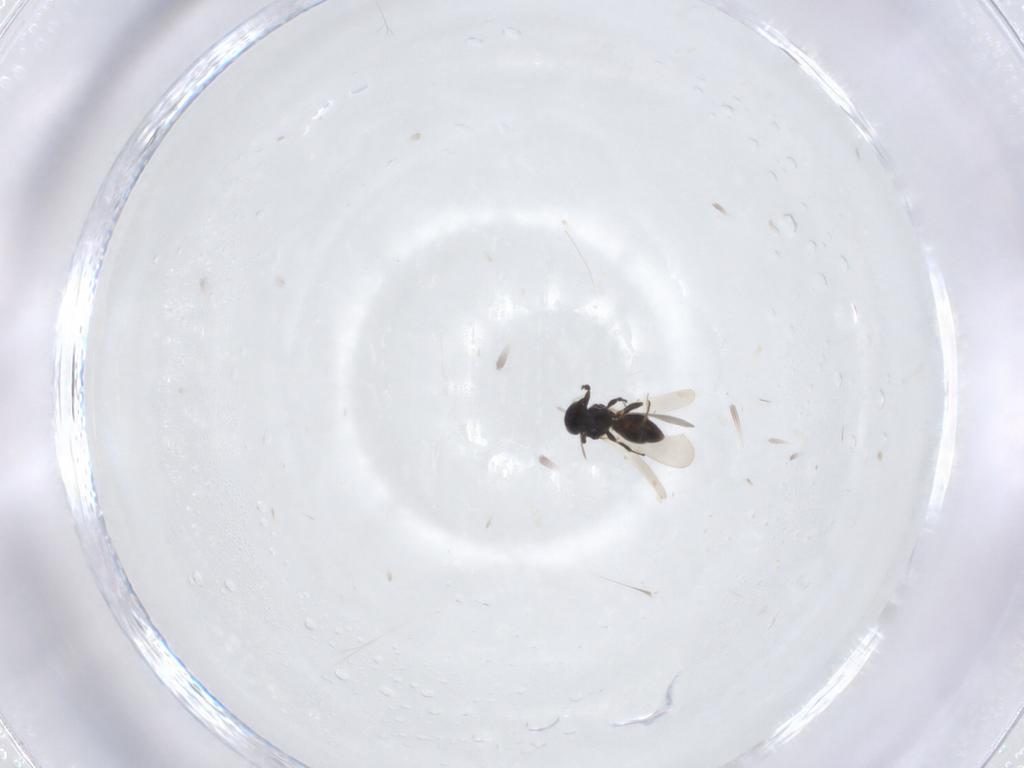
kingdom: Animalia
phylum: Arthropoda
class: Insecta
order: Hymenoptera
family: Platygastridae
